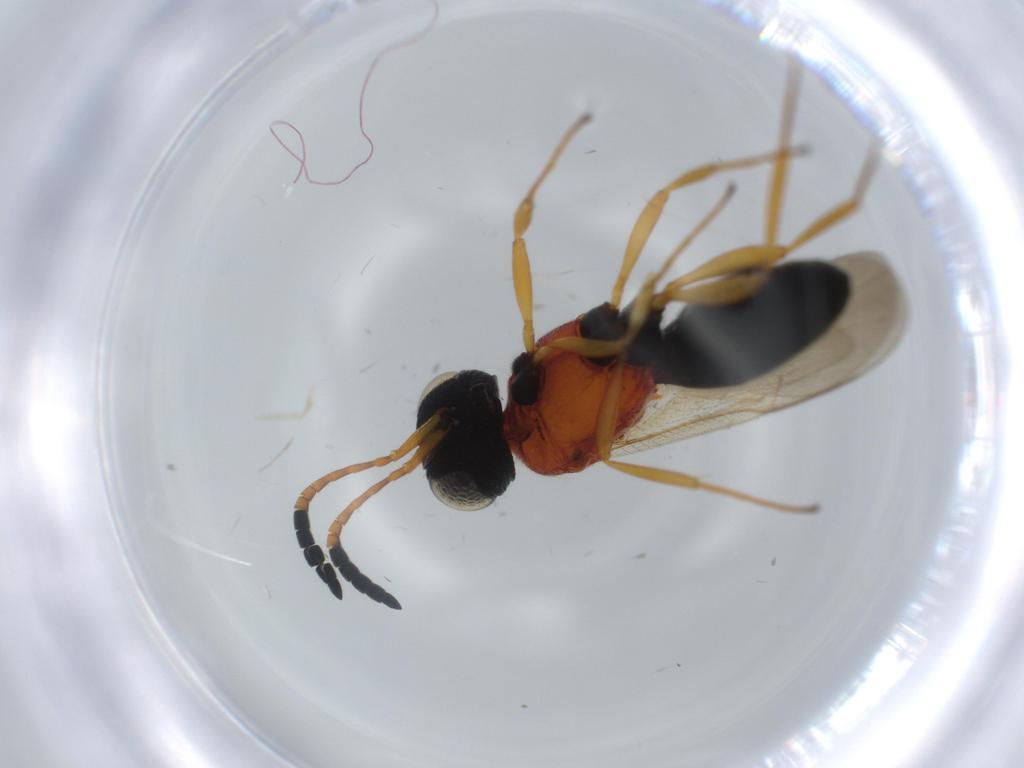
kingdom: Animalia
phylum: Arthropoda
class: Insecta
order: Hymenoptera
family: Scelionidae
